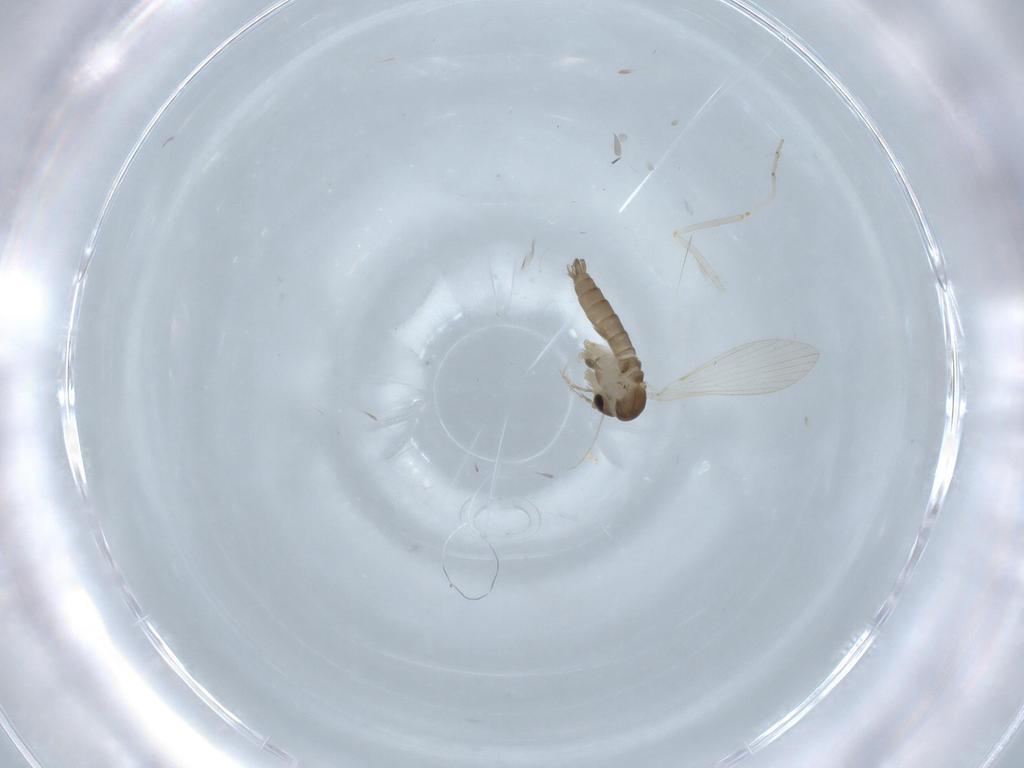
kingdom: Animalia
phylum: Arthropoda
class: Insecta
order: Diptera
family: Psychodidae
